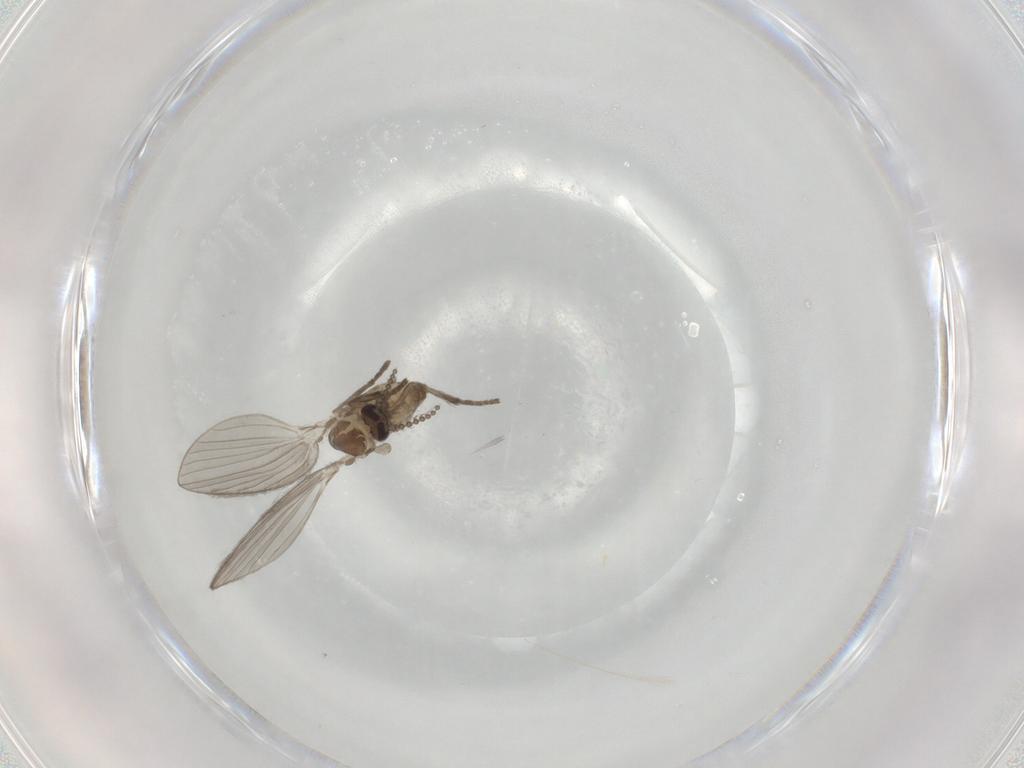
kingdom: Animalia
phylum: Arthropoda
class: Insecta
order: Diptera
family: Psychodidae
